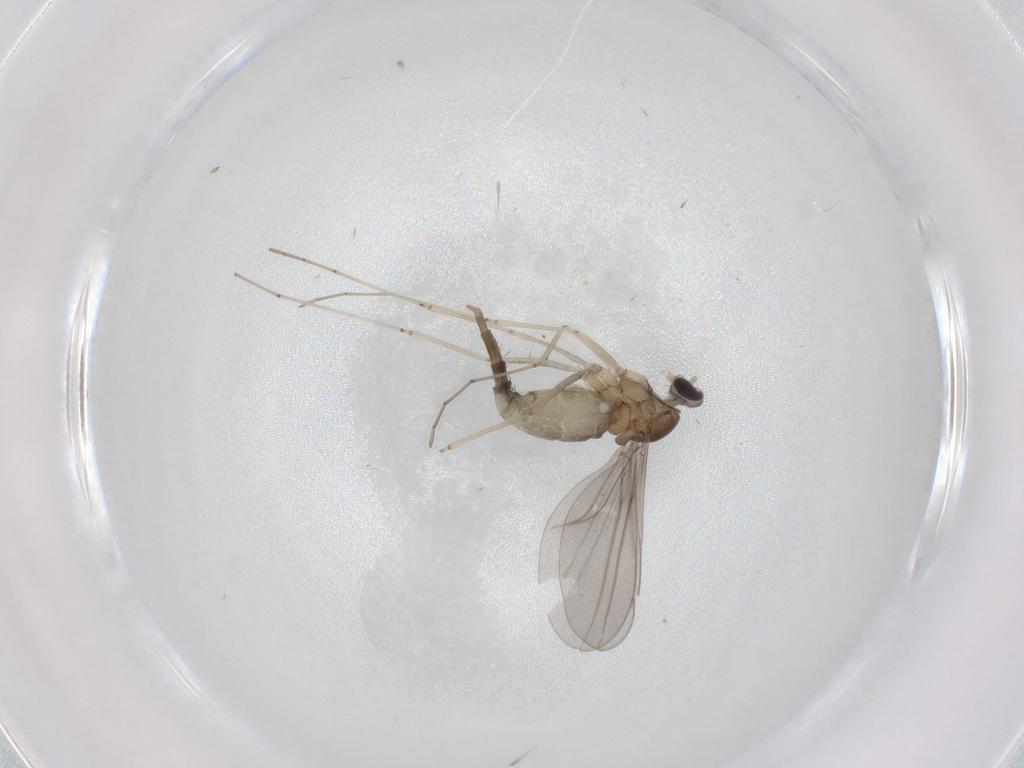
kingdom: Animalia
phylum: Arthropoda
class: Insecta
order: Diptera
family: Cecidomyiidae
